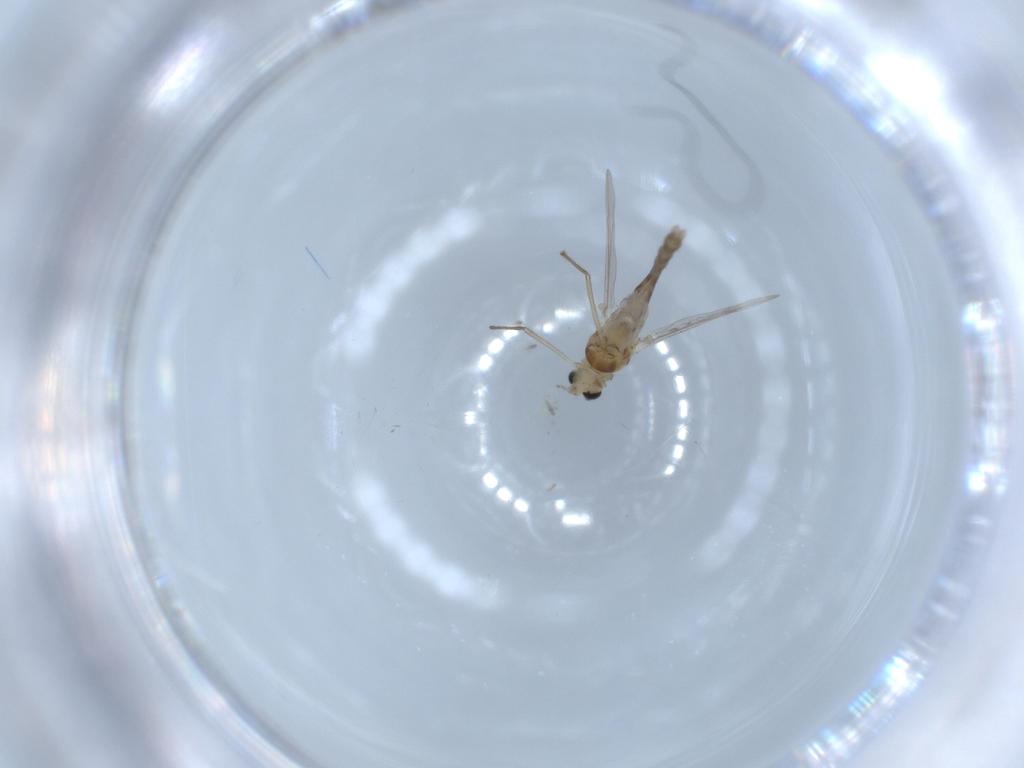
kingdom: Animalia
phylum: Arthropoda
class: Insecta
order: Diptera
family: Chironomidae
